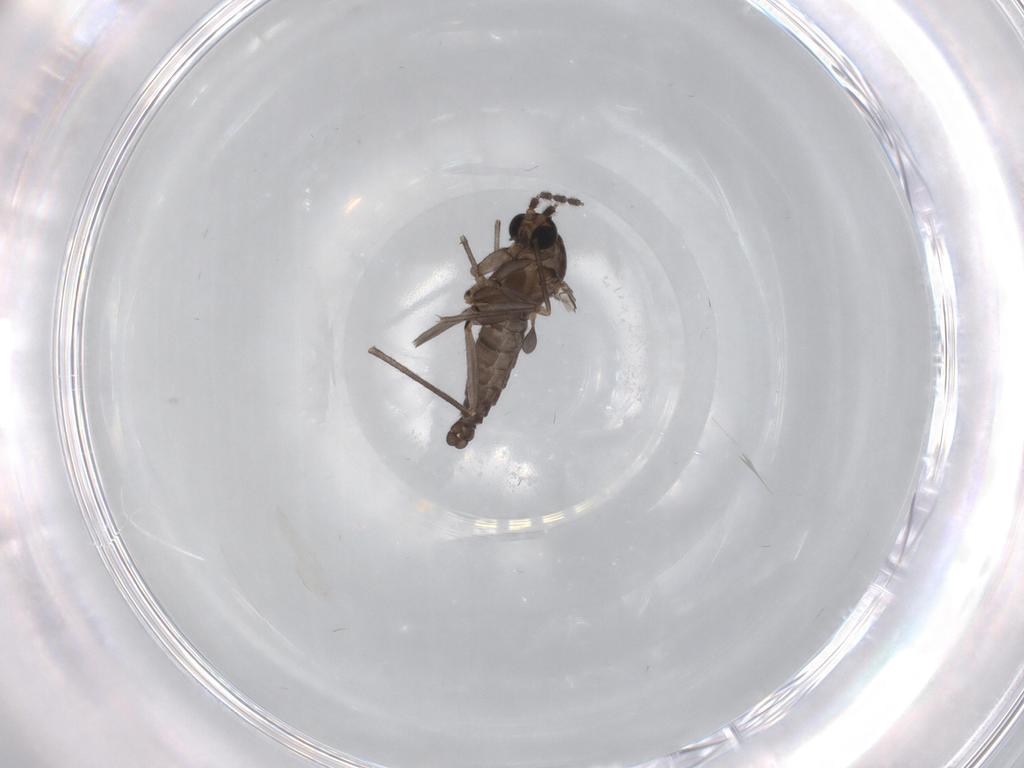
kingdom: Animalia
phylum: Arthropoda
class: Insecta
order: Diptera
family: Sciaridae
